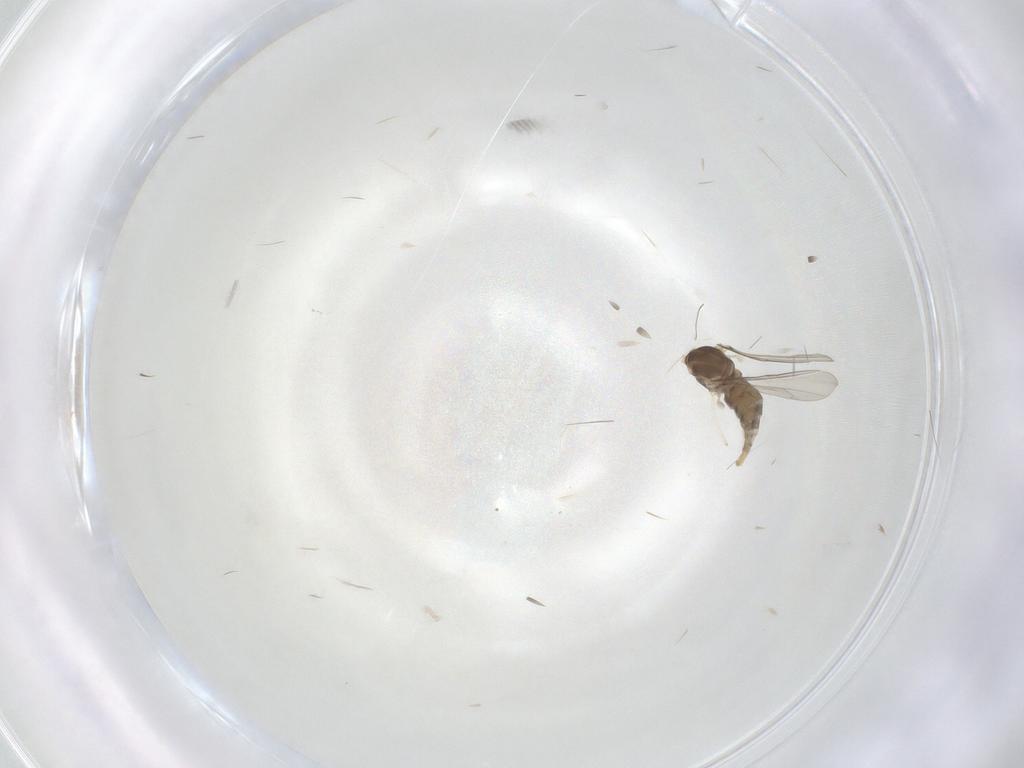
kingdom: Animalia
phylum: Arthropoda
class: Insecta
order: Diptera
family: Cecidomyiidae
